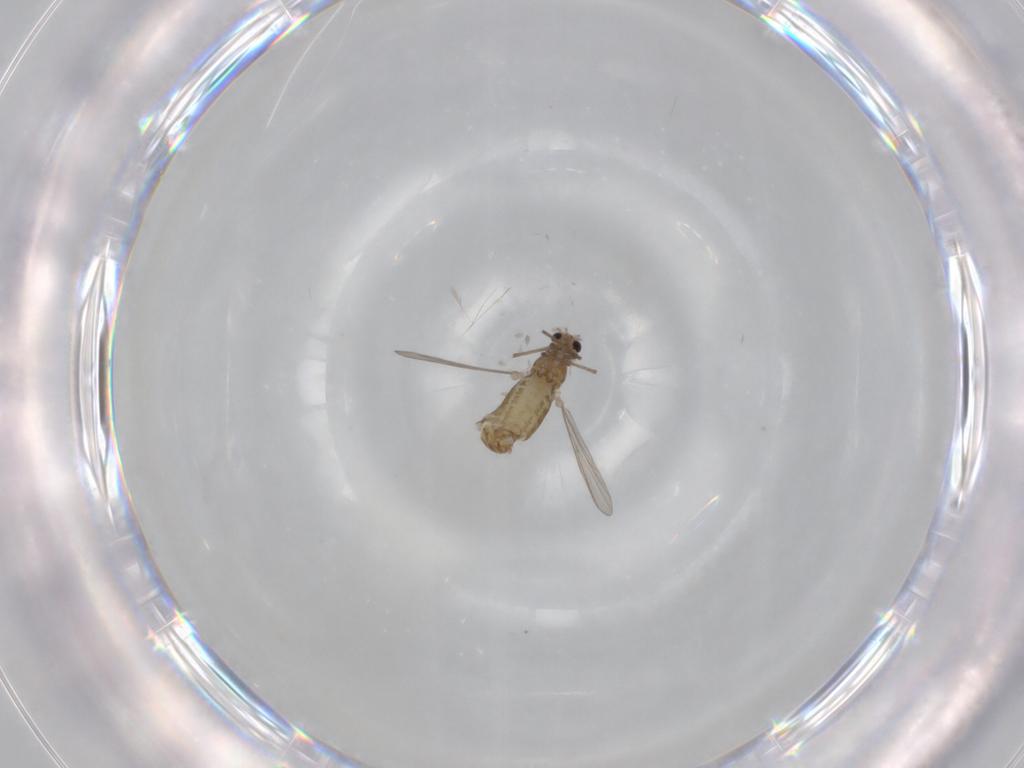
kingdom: Animalia
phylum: Arthropoda
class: Insecta
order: Diptera
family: Chironomidae
